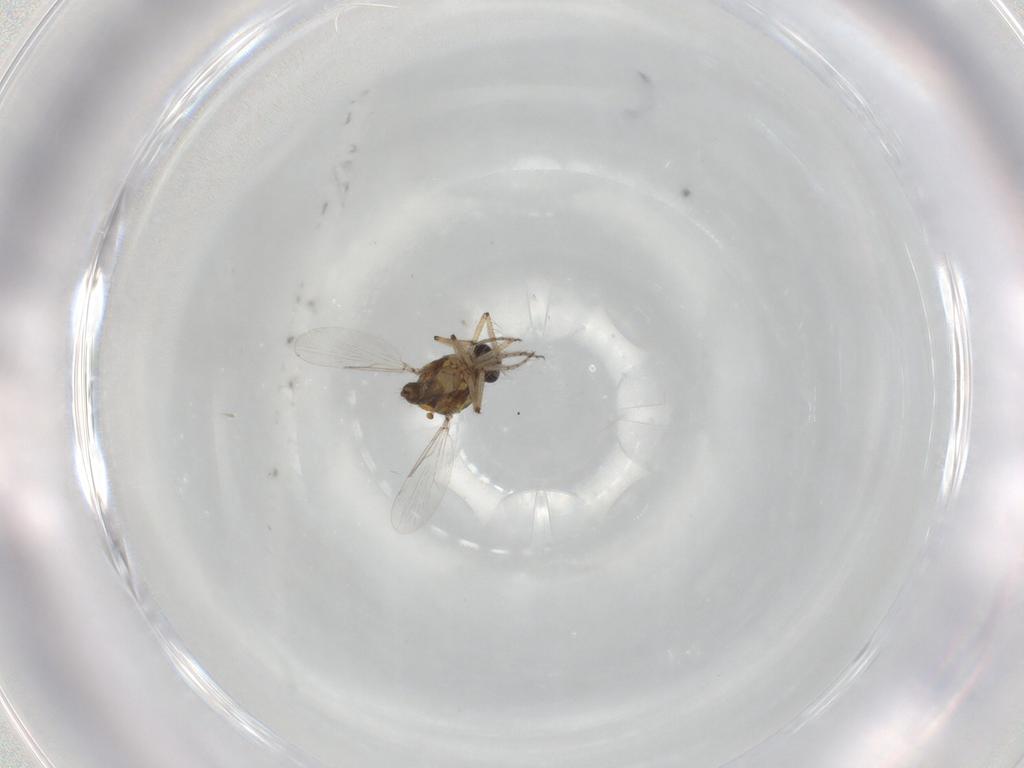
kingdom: Animalia
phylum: Arthropoda
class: Insecta
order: Diptera
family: Ceratopogonidae
